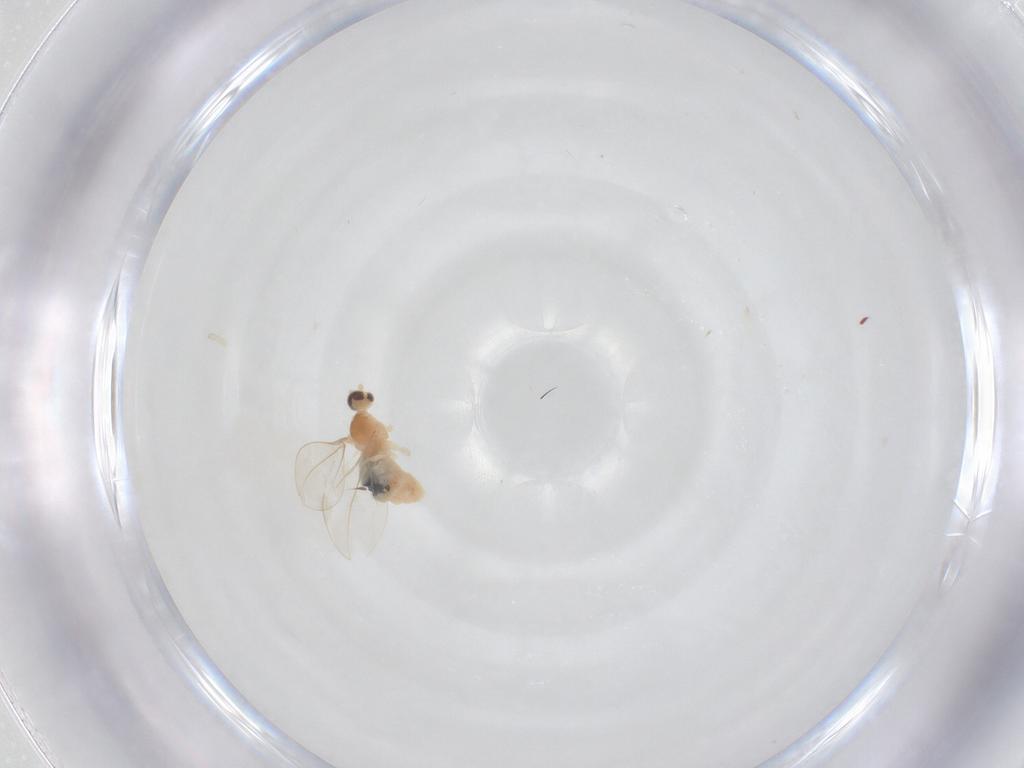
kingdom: Animalia
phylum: Arthropoda
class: Insecta
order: Diptera
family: Cecidomyiidae
